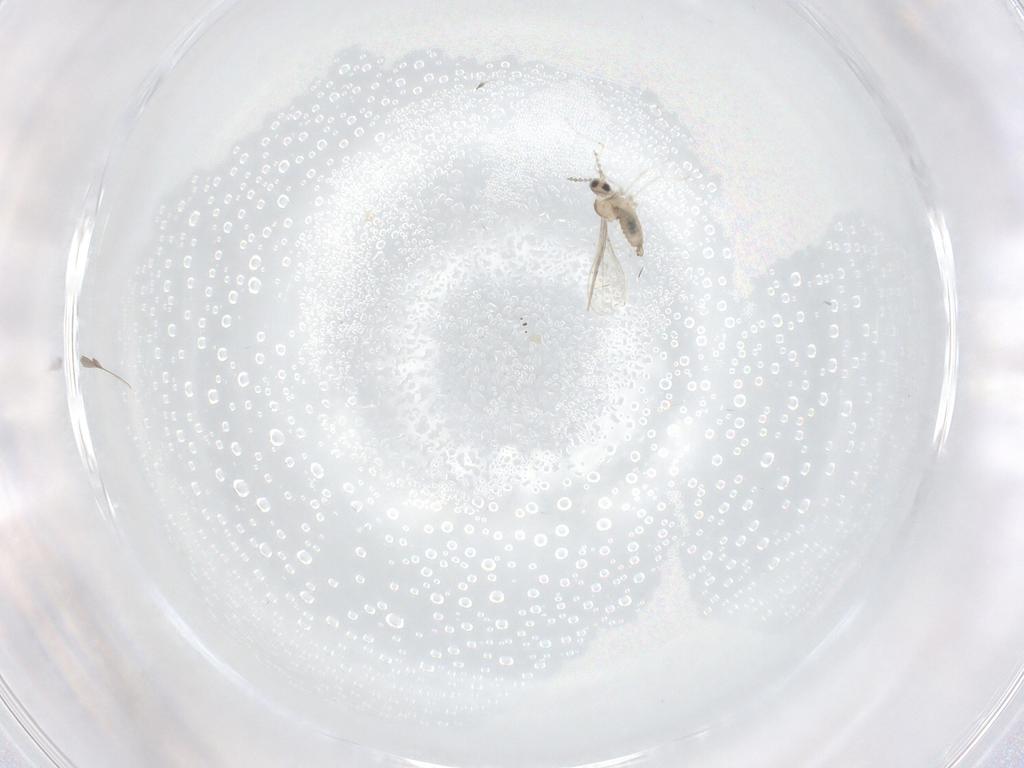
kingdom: Animalia
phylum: Arthropoda
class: Insecta
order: Diptera
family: Cecidomyiidae
